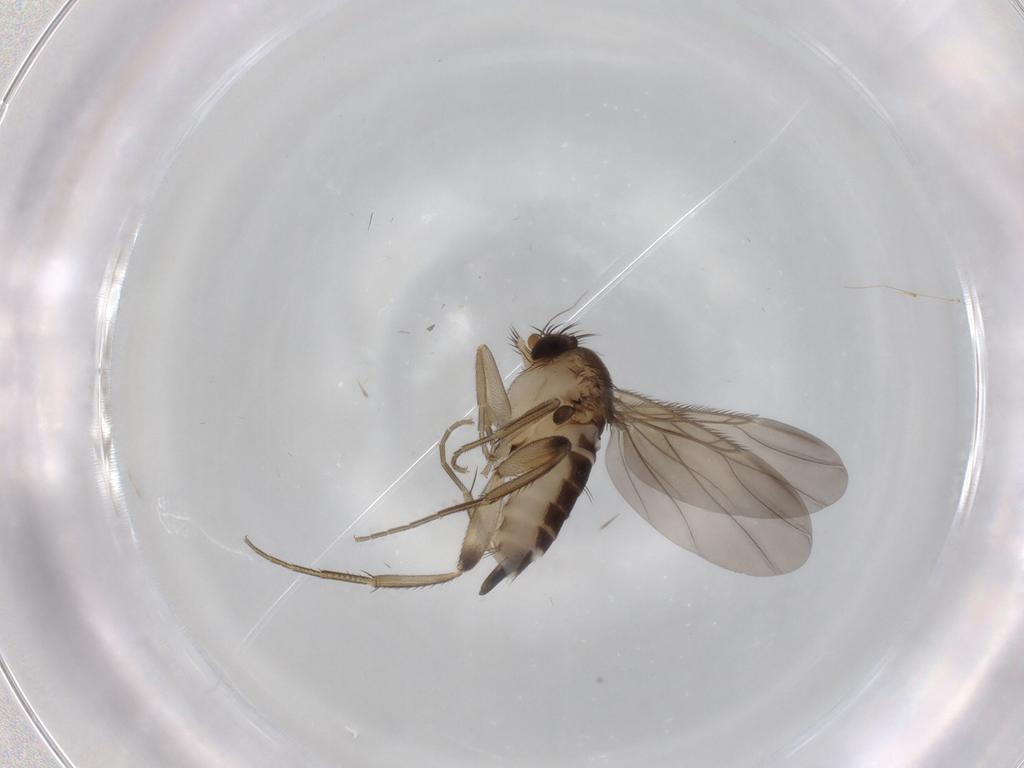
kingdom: Animalia
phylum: Arthropoda
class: Insecta
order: Diptera
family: Phoridae
